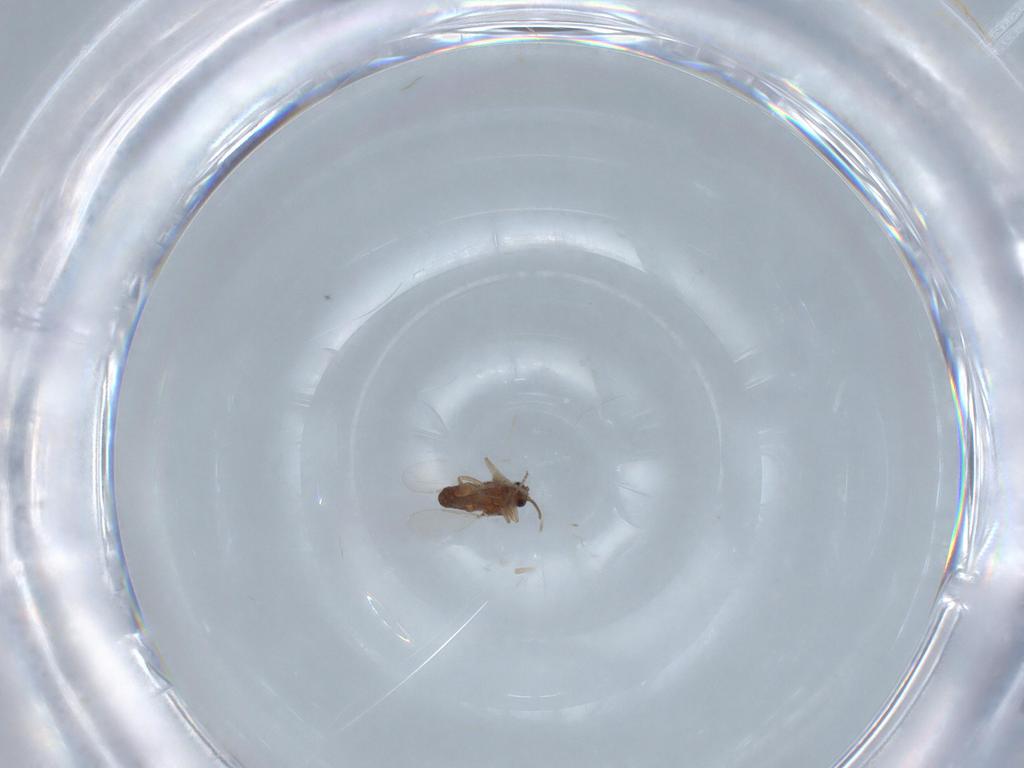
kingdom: Animalia
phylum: Arthropoda
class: Insecta
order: Diptera
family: Ceratopogonidae
